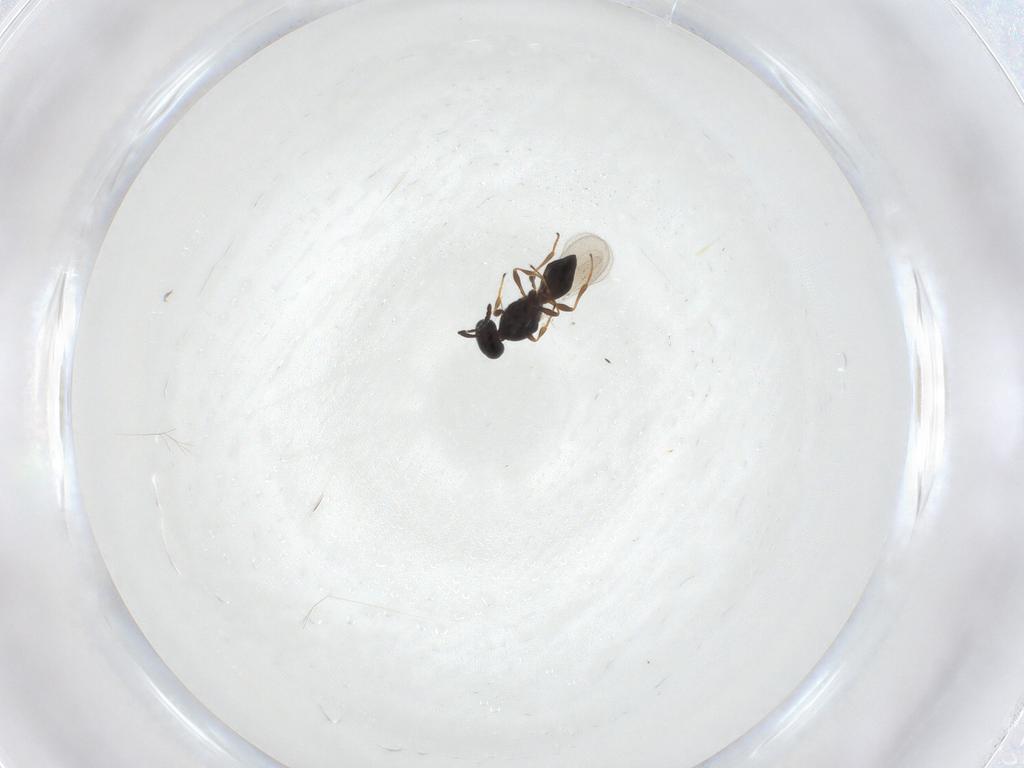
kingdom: Animalia
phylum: Arthropoda
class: Insecta
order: Hymenoptera
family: Platygastridae
